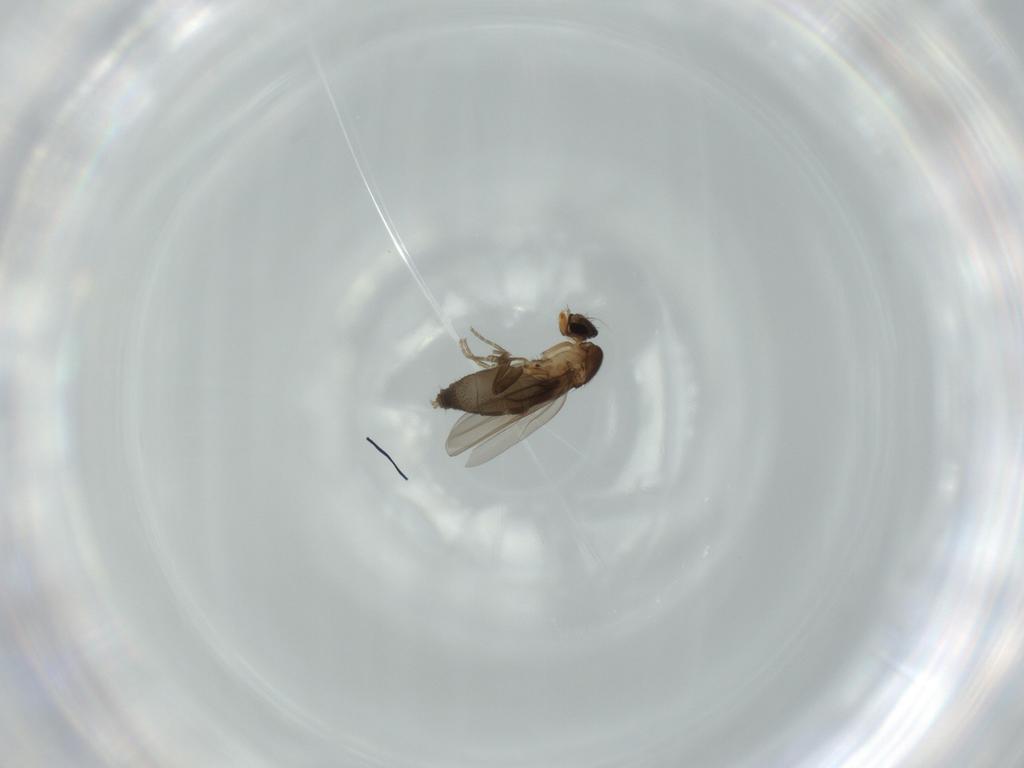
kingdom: Animalia
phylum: Arthropoda
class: Insecta
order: Diptera
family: Phoridae
